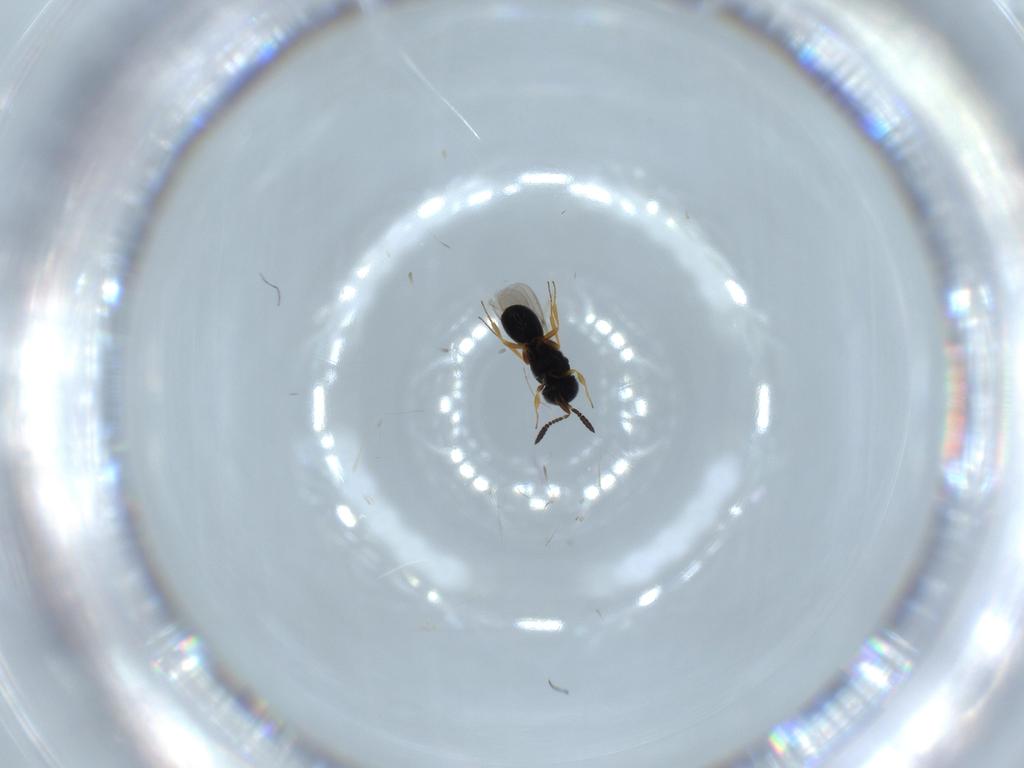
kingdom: Animalia
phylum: Arthropoda
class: Insecta
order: Hymenoptera
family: Scelionidae
